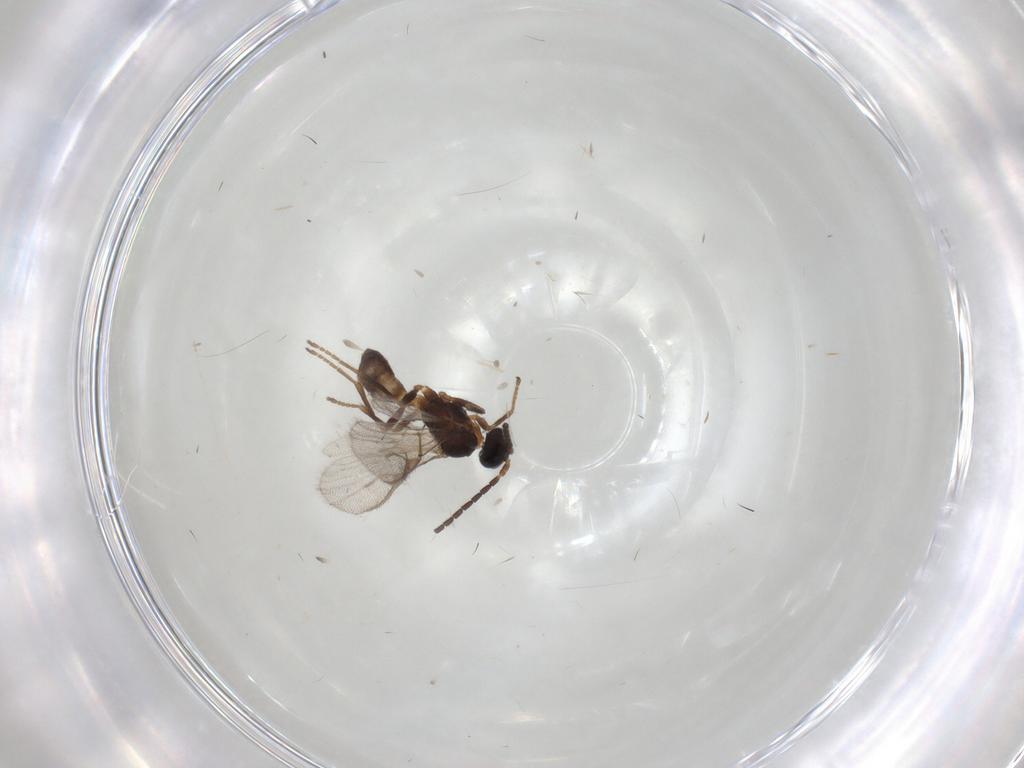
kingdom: Animalia
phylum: Arthropoda
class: Insecta
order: Hymenoptera
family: Braconidae
